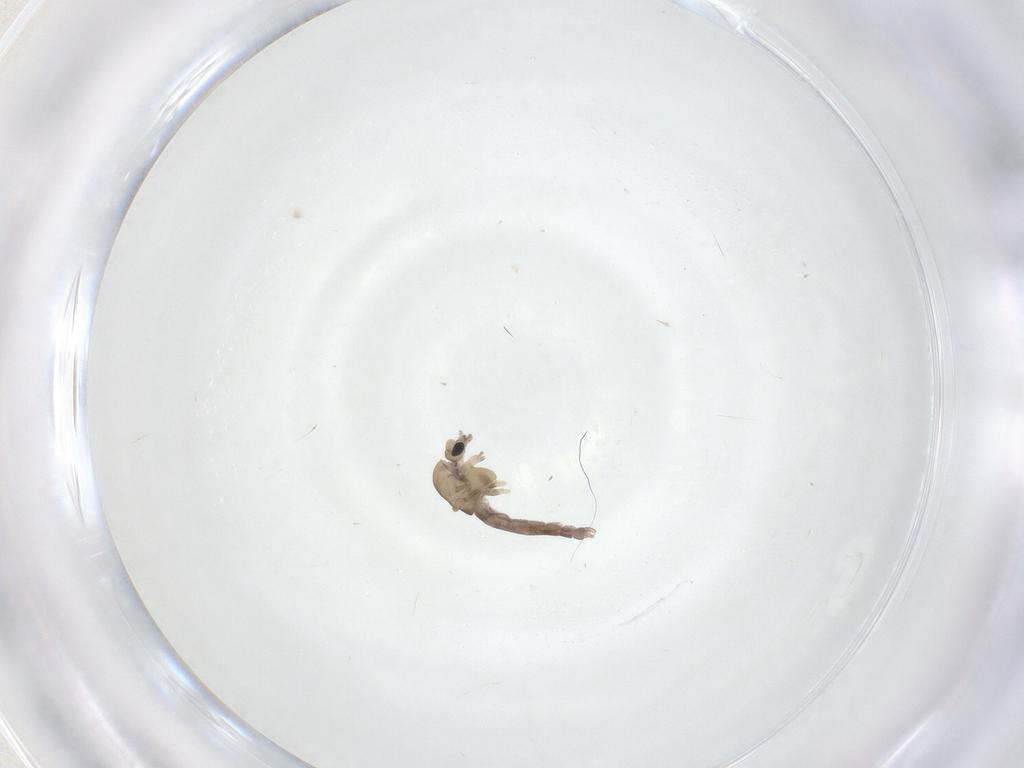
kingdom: Animalia
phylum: Arthropoda
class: Insecta
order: Diptera
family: Chironomidae
